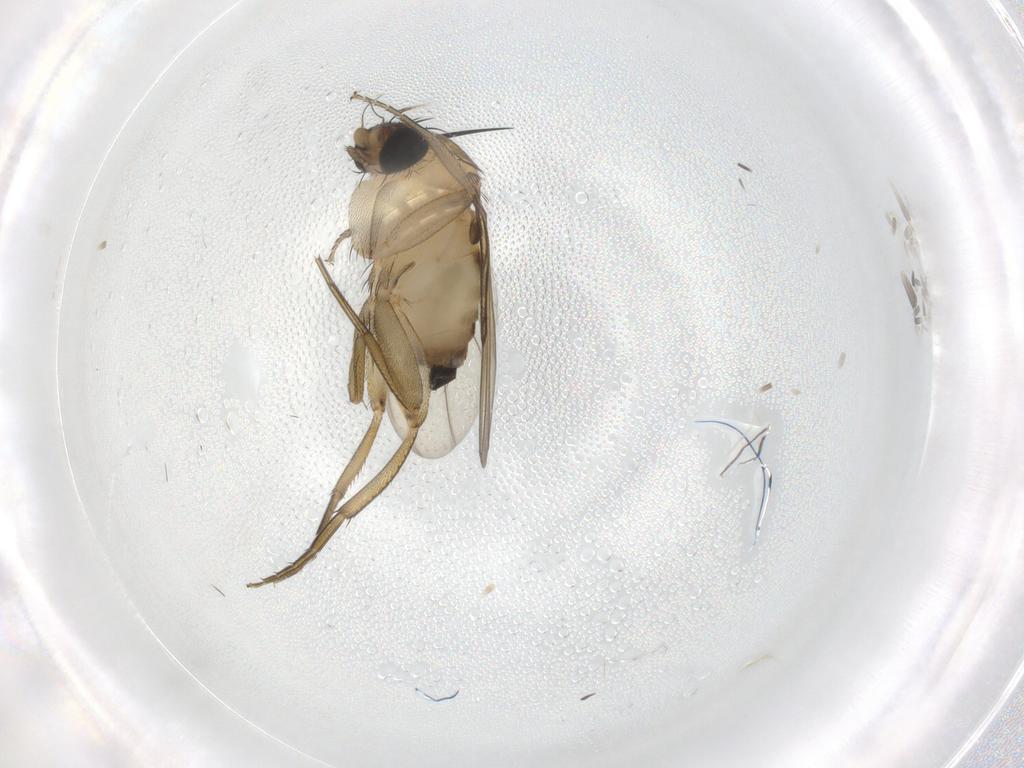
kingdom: Animalia
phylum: Arthropoda
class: Insecta
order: Diptera
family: Phoridae
